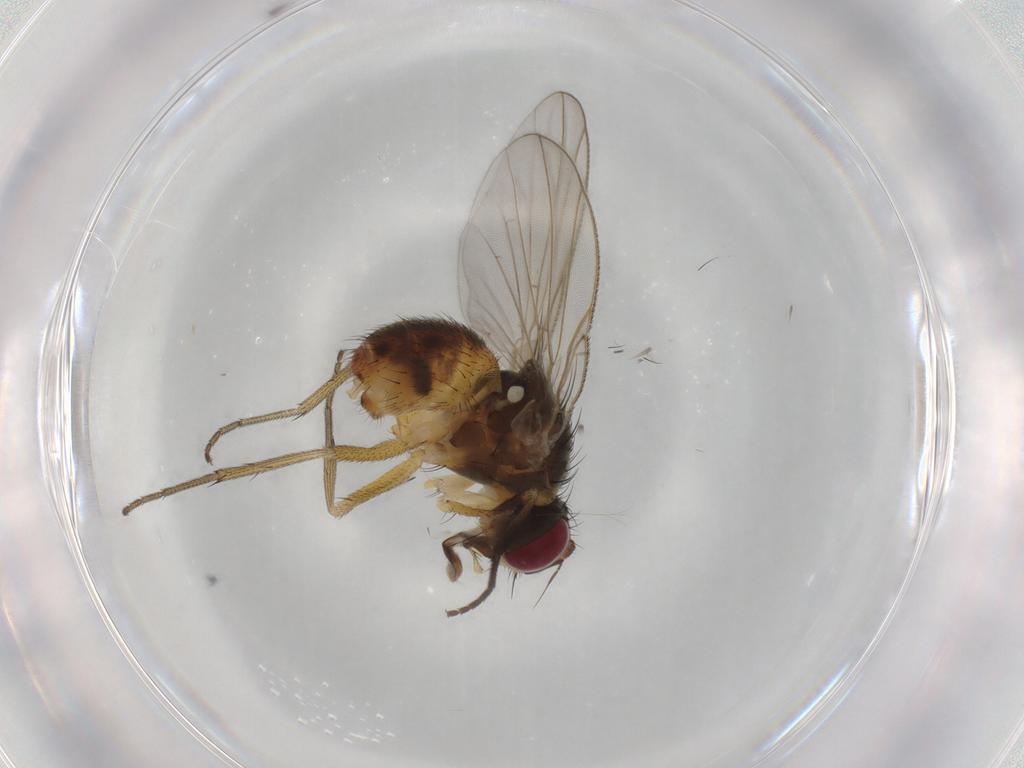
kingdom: Animalia
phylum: Arthropoda
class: Insecta
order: Diptera
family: Muscidae
